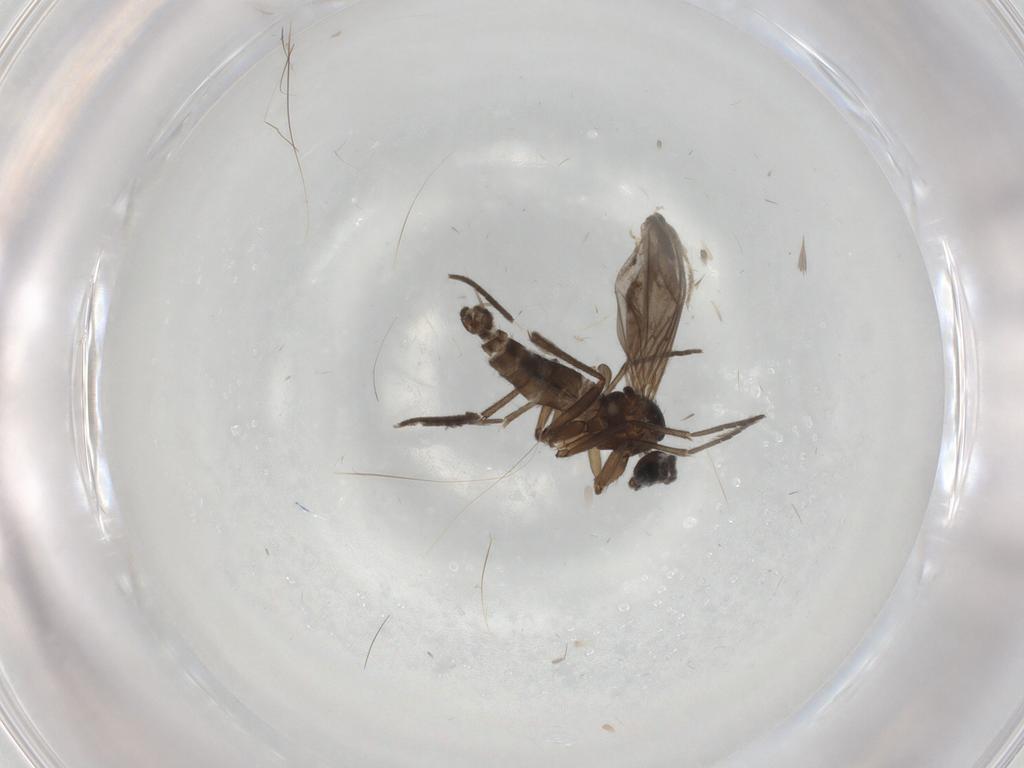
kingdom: Animalia
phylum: Arthropoda
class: Insecta
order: Diptera
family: Sciaridae
